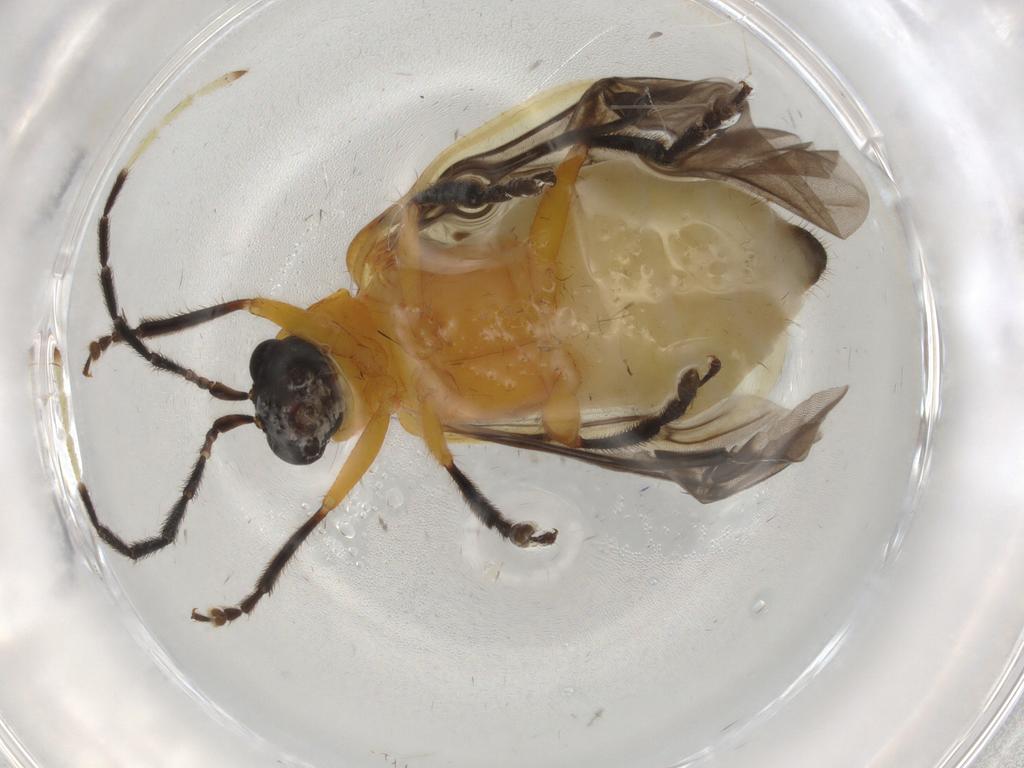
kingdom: Animalia
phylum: Arthropoda
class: Insecta
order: Coleoptera
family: Chrysomelidae
